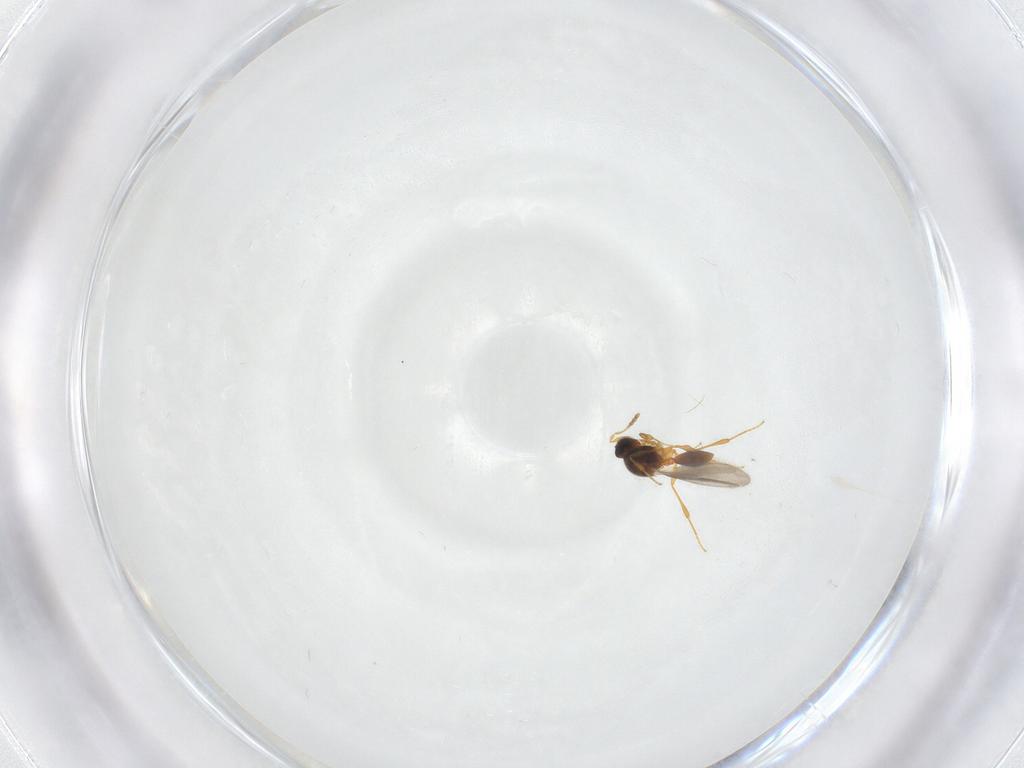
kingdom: Animalia
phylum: Arthropoda
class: Insecta
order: Hymenoptera
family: Platygastridae
